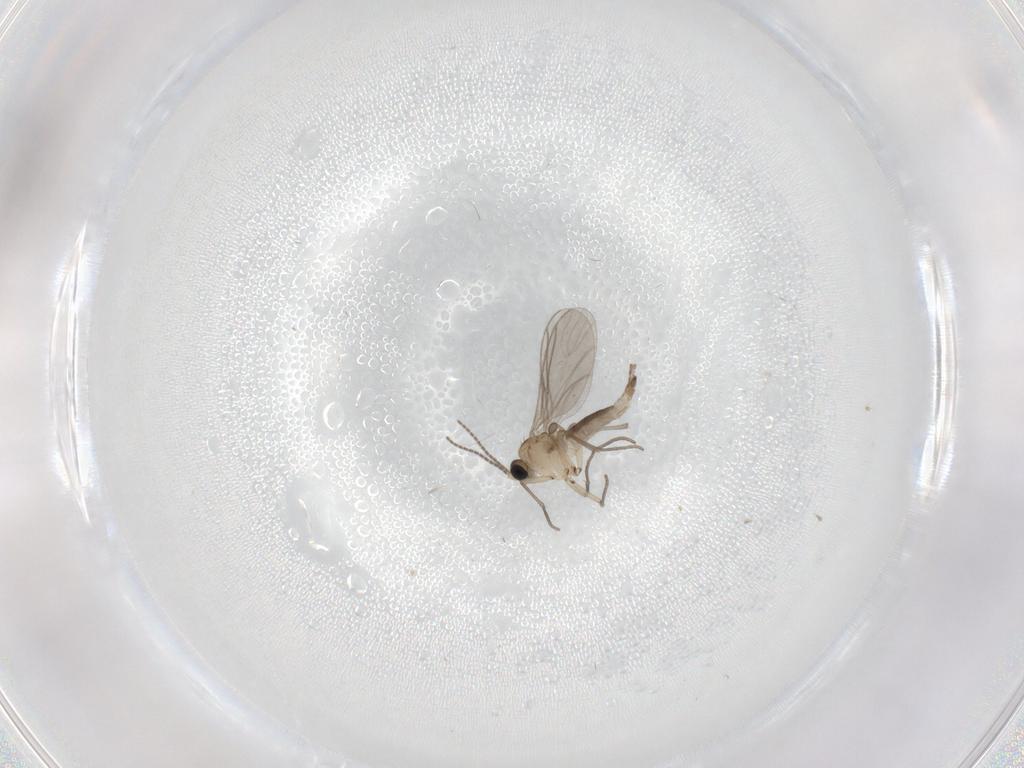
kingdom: Animalia
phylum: Arthropoda
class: Insecta
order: Diptera
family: Sciaridae
